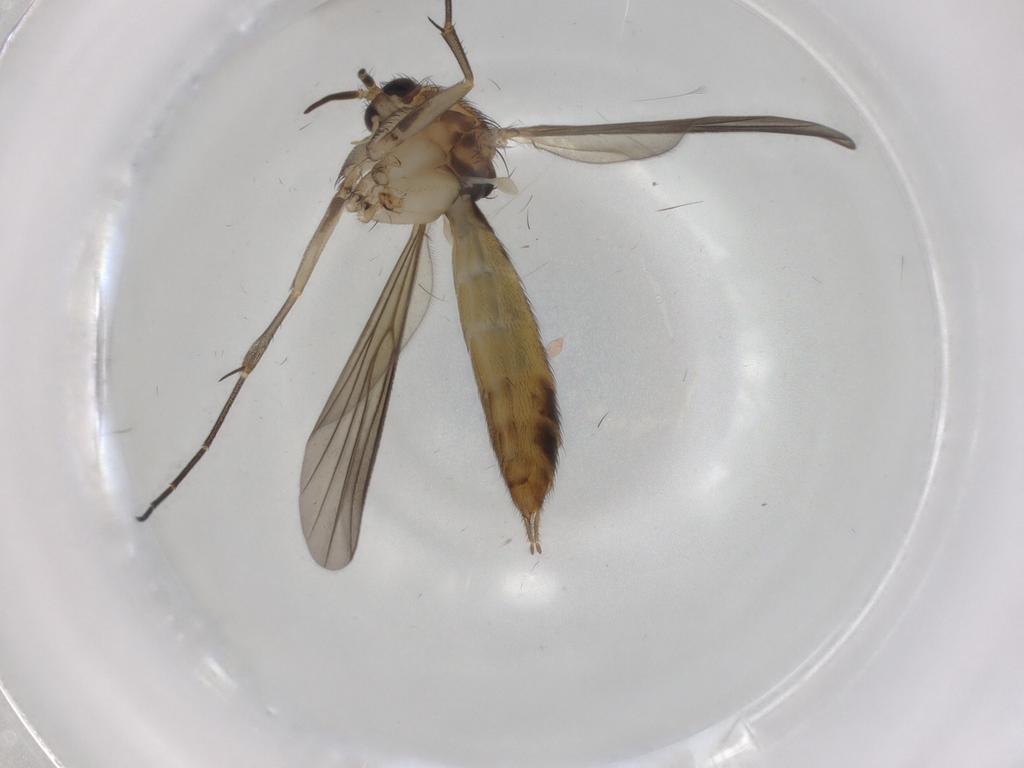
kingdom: Animalia
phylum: Arthropoda
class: Insecta
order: Diptera
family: Mycetophilidae
